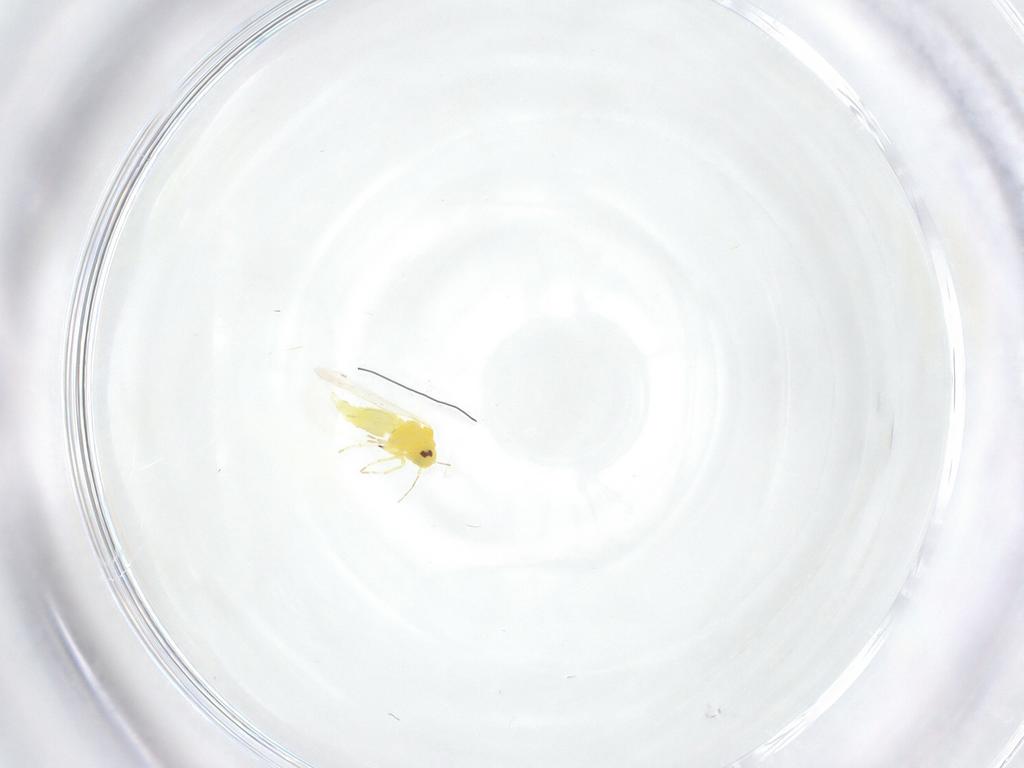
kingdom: Animalia
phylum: Arthropoda
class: Insecta
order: Hemiptera
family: Aleyrodidae
